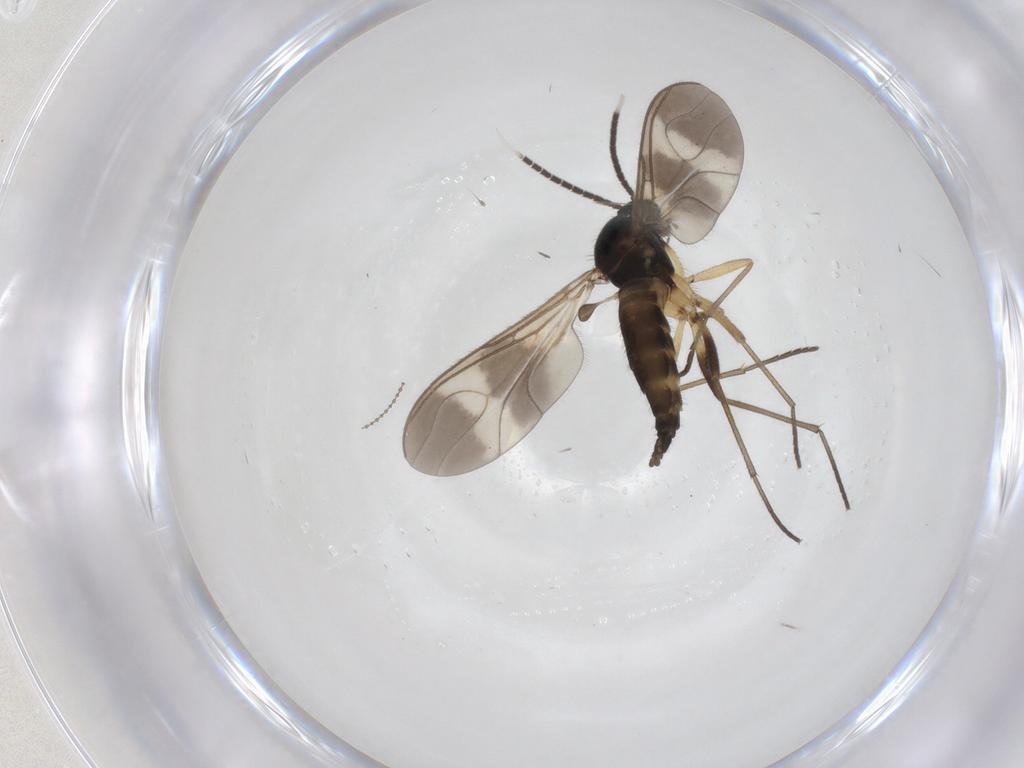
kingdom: Animalia
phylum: Arthropoda
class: Insecta
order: Diptera
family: Sciaridae
